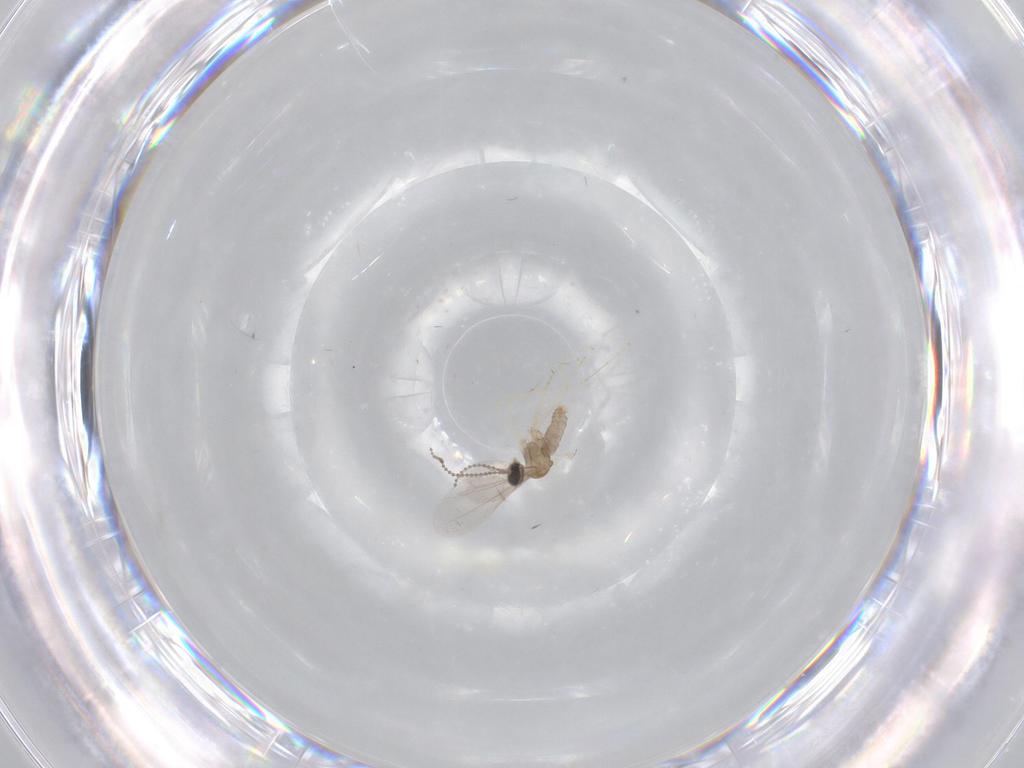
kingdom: Animalia
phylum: Arthropoda
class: Insecta
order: Diptera
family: Cecidomyiidae
